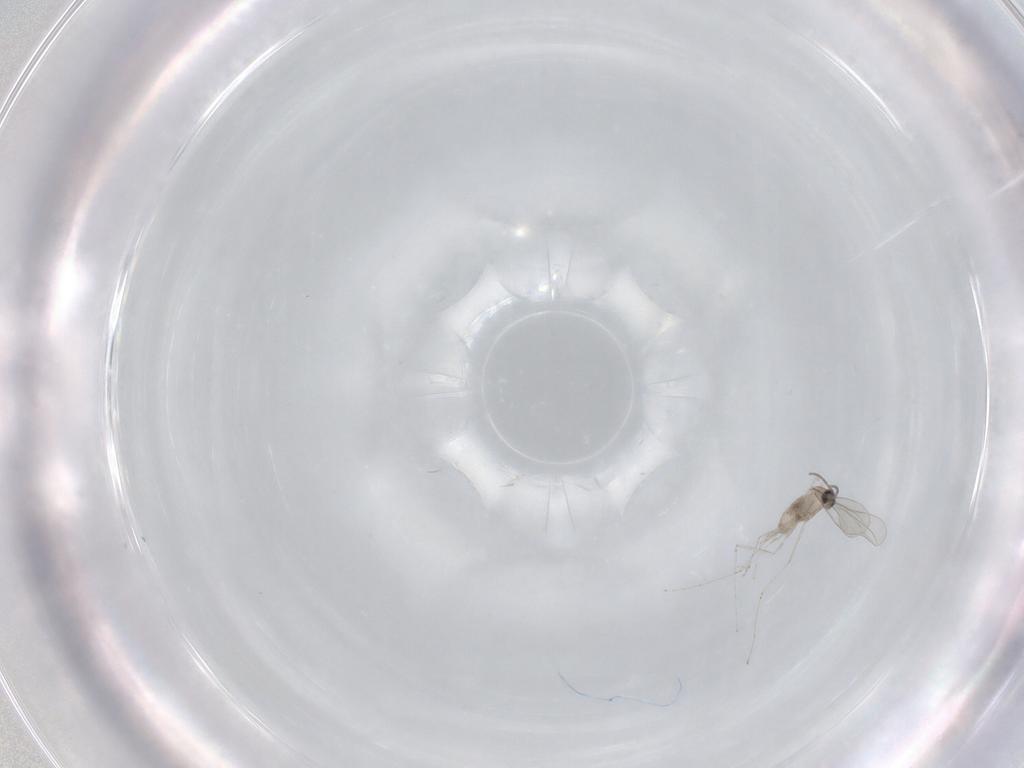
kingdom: Animalia
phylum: Arthropoda
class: Insecta
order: Diptera
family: Cecidomyiidae
